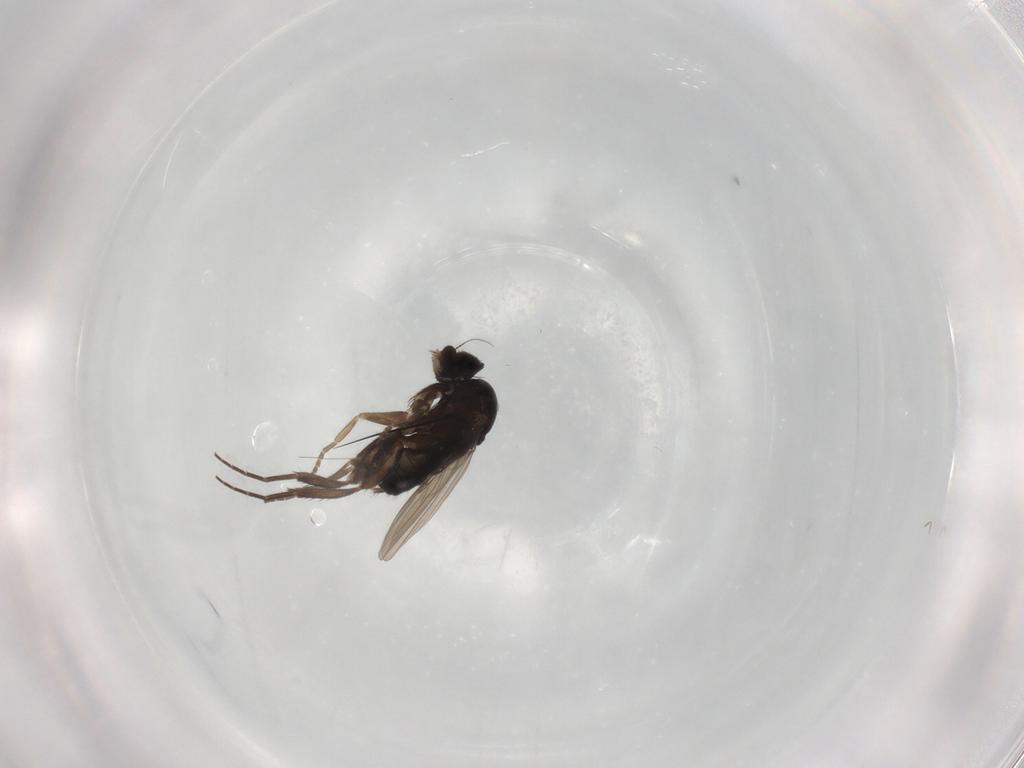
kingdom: Animalia
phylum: Arthropoda
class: Insecta
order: Diptera
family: Phoridae
